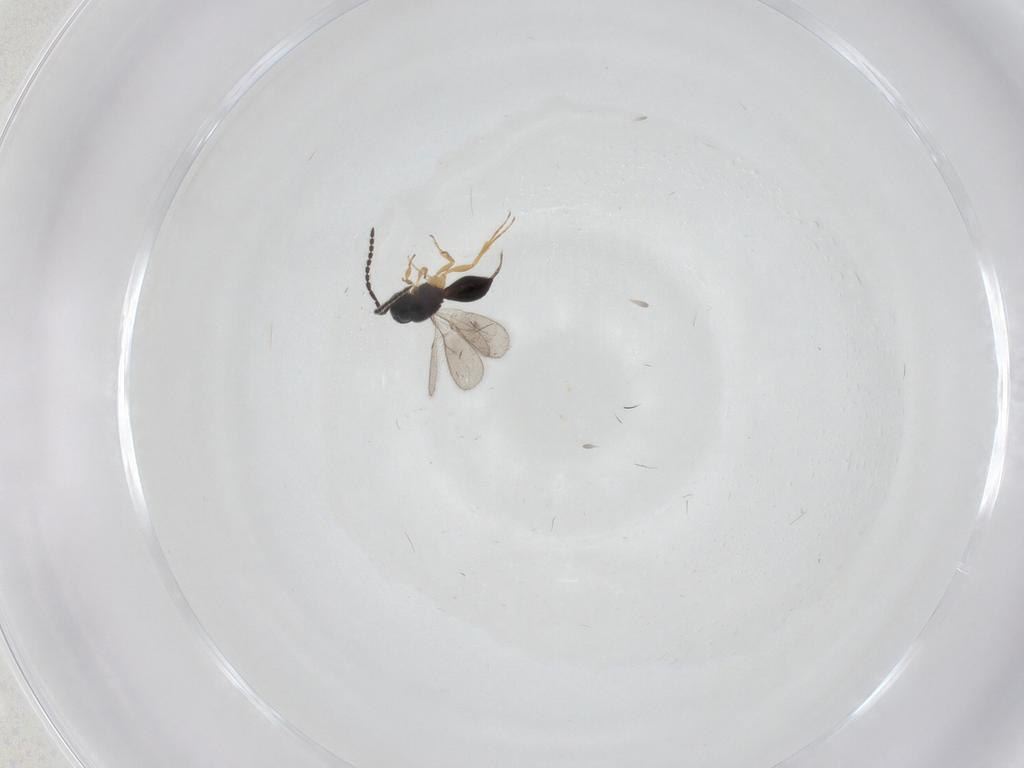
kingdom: Animalia
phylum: Arthropoda
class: Insecta
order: Hymenoptera
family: Scelionidae
